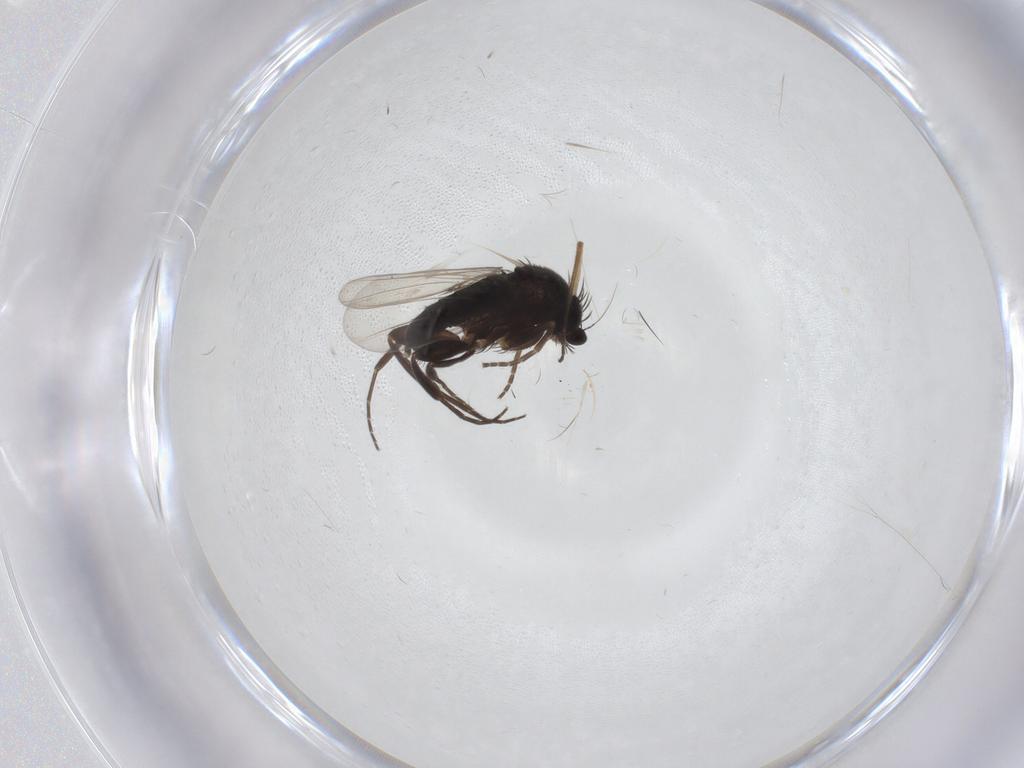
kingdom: Animalia
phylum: Arthropoda
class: Insecta
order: Diptera
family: Phoridae
